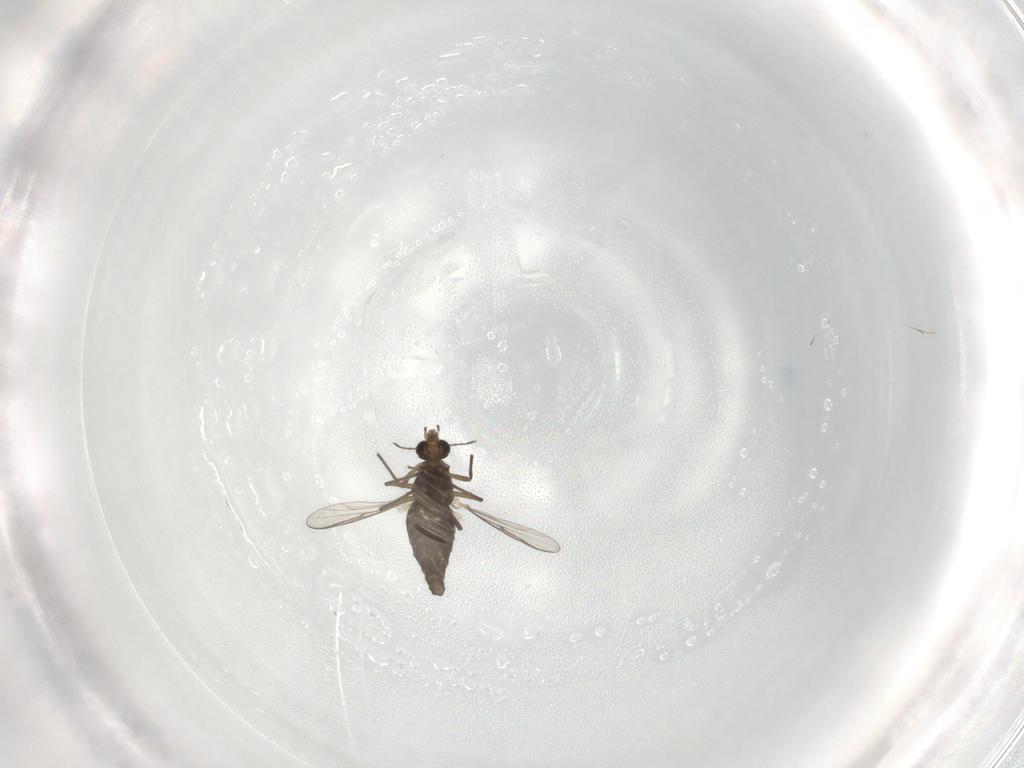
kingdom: Animalia
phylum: Arthropoda
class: Insecta
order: Diptera
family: Chironomidae
